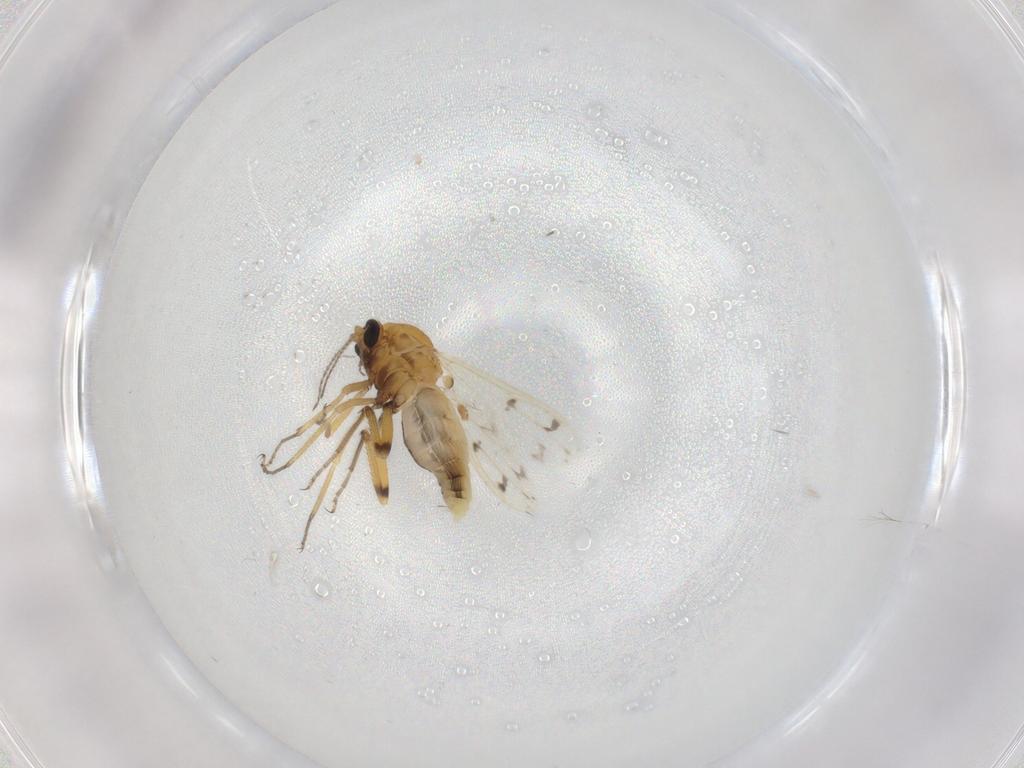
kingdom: Animalia
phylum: Arthropoda
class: Insecta
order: Diptera
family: Ceratopogonidae
